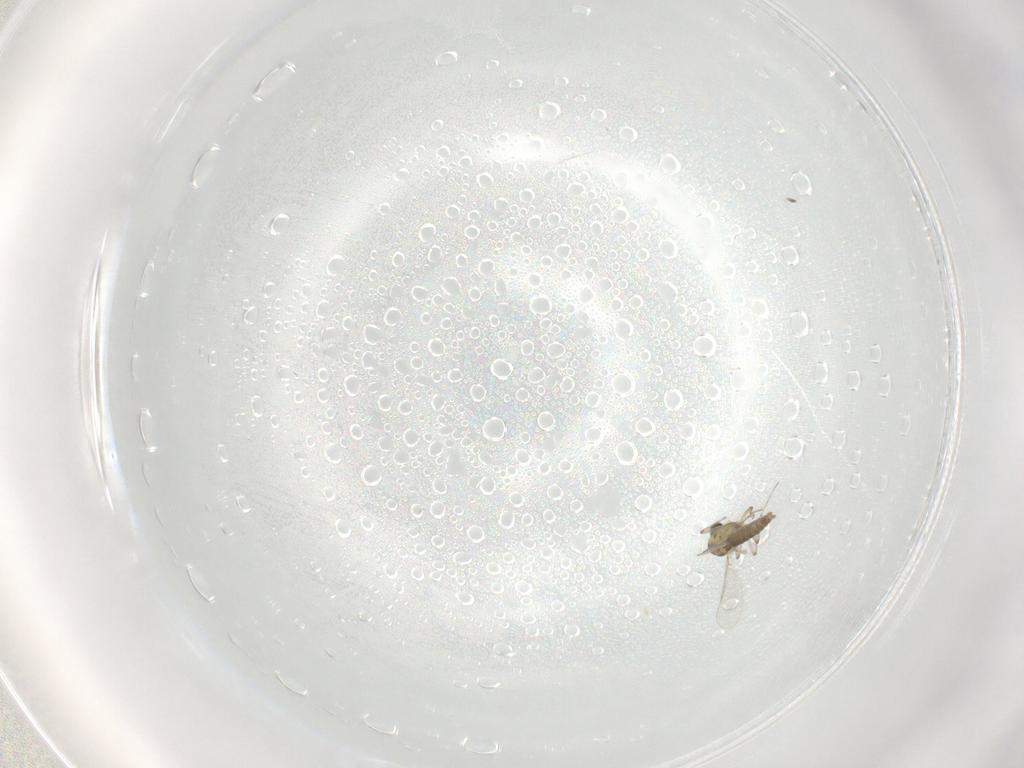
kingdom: Animalia
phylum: Arthropoda
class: Insecta
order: Diptera
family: Chironomidae
